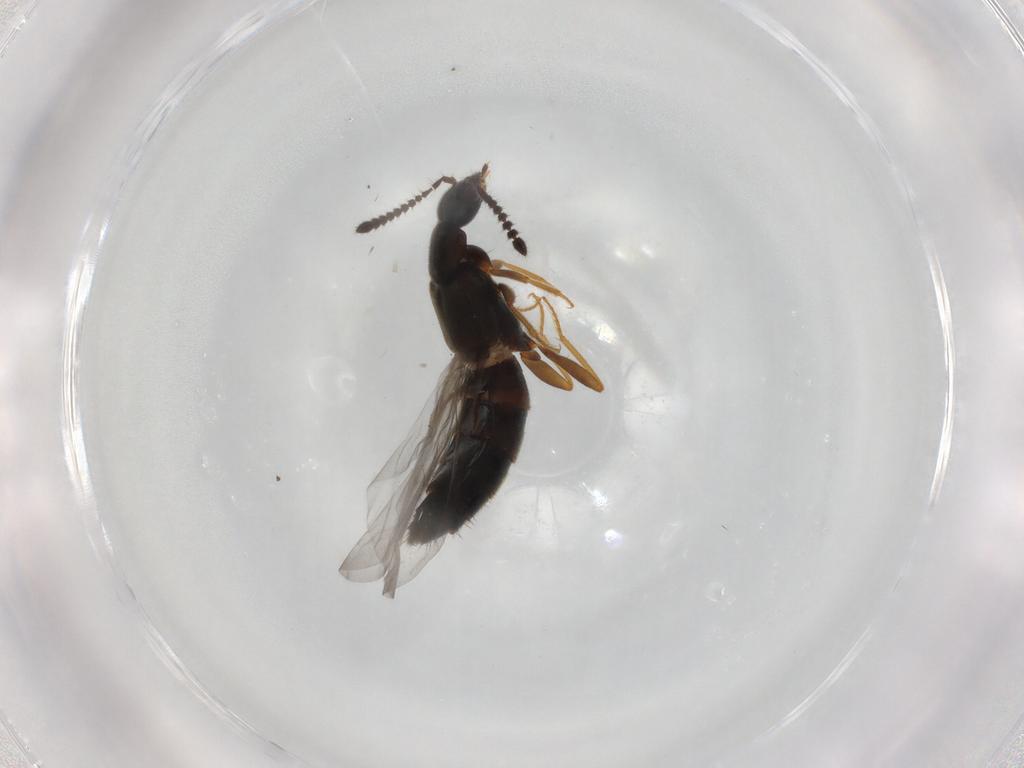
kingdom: Animalia
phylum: Arthropoda
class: Insecta
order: Coleoptera
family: Staphylinidae
